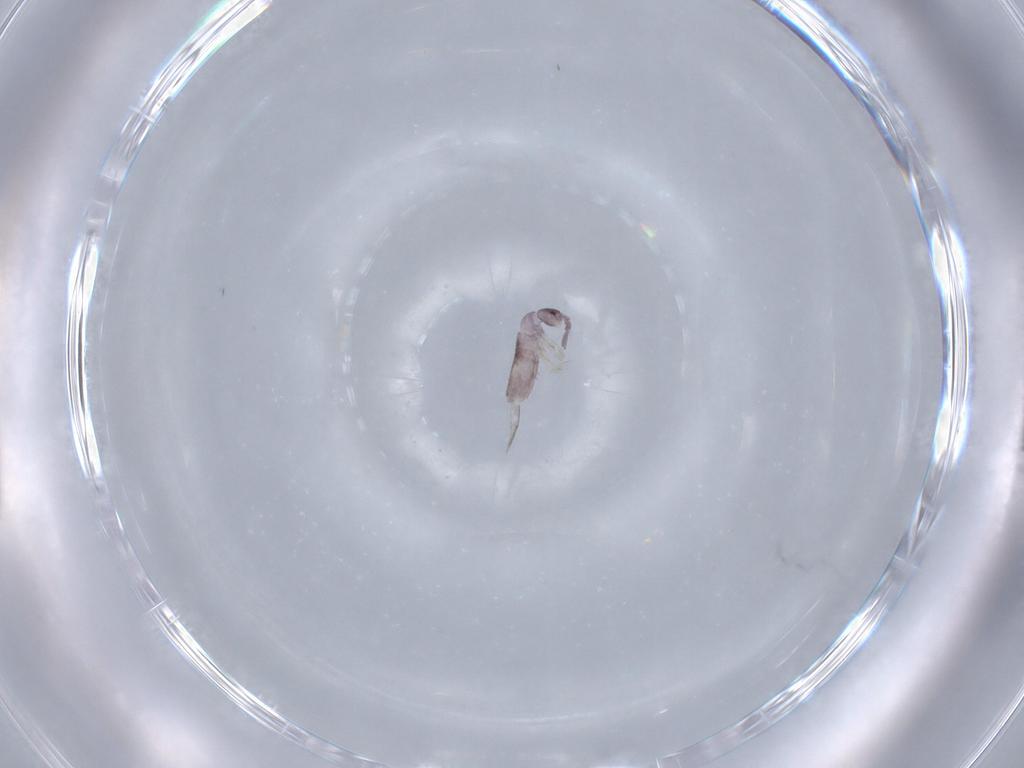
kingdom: Animalia
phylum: Arthropoda
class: Collembola
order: Entomobryomorpha
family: Entomobryidae
